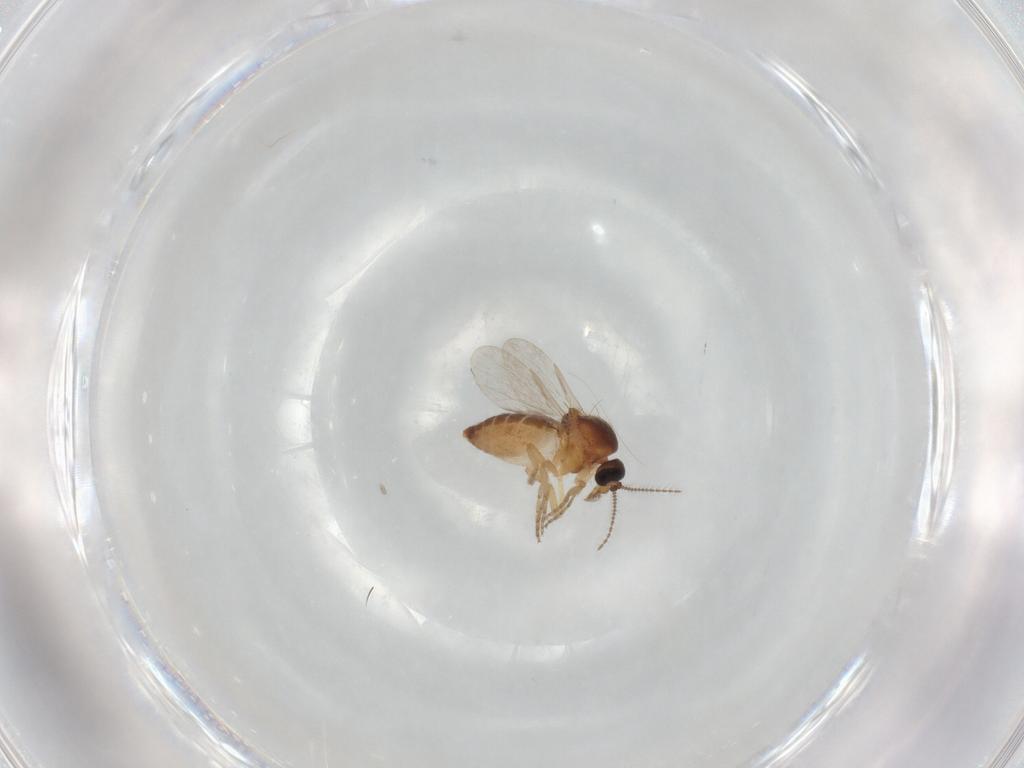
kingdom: Animalia
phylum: Arthropoda
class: Insecta
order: Diptera
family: Ceratopogonidae
